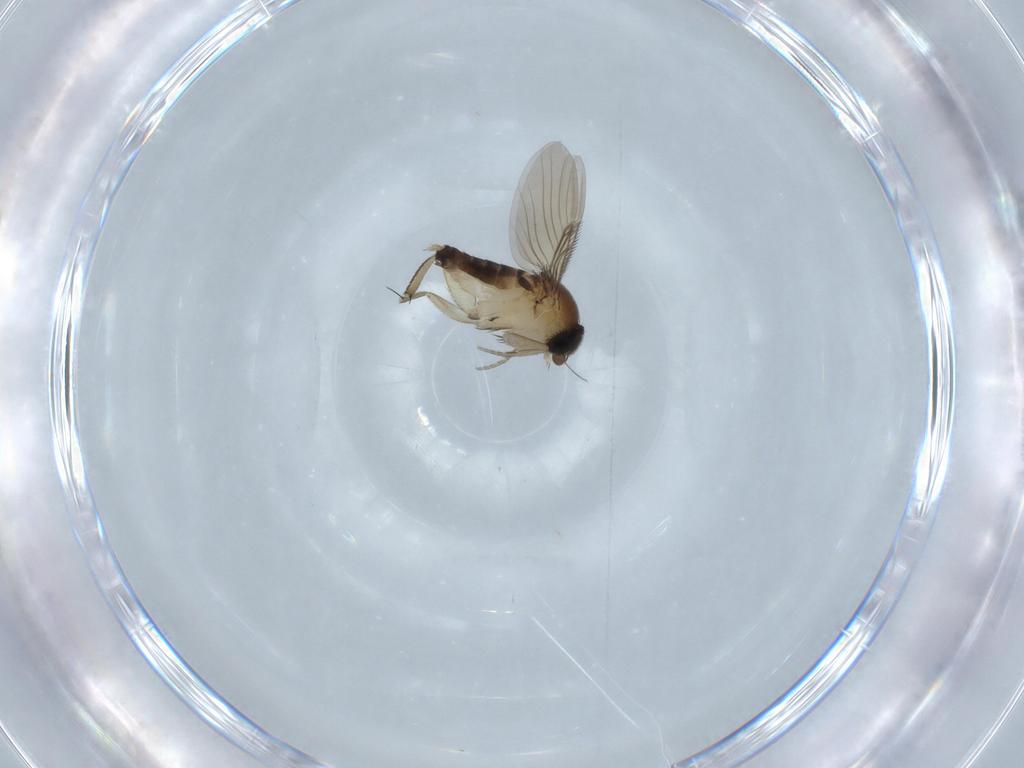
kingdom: Animalia
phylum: Arthropoda
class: Insecta
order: Diptera
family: Phoridae
